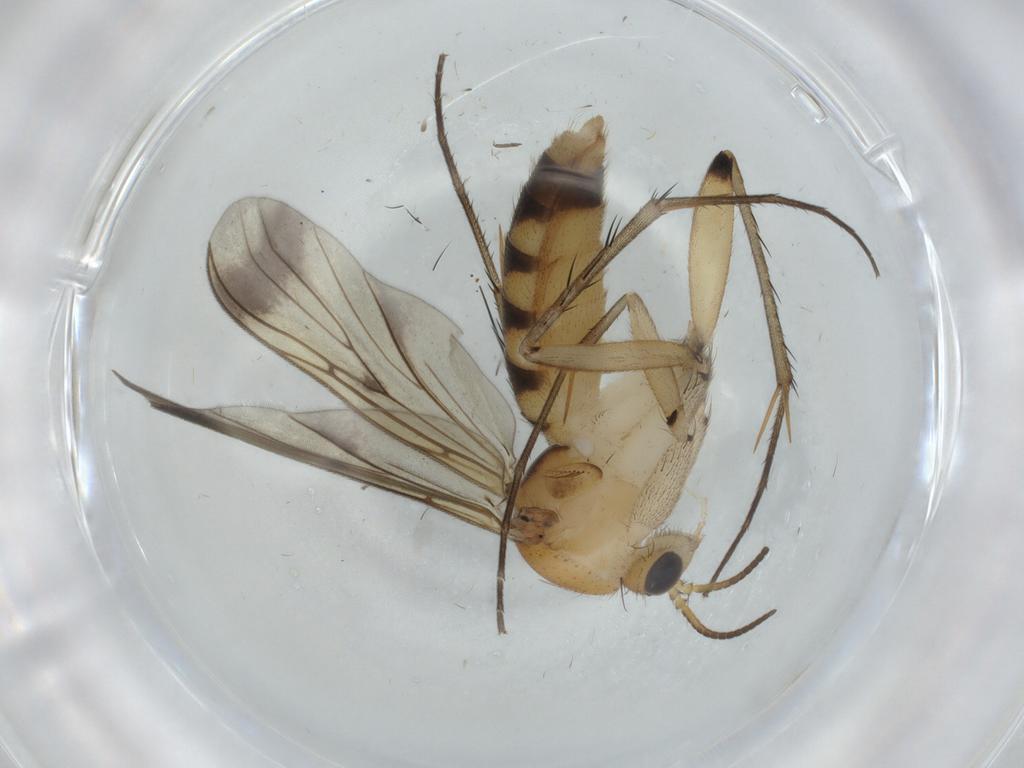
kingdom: Animalia
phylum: Arthropoda
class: Insecta
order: Diptera
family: Mycetophilidae
